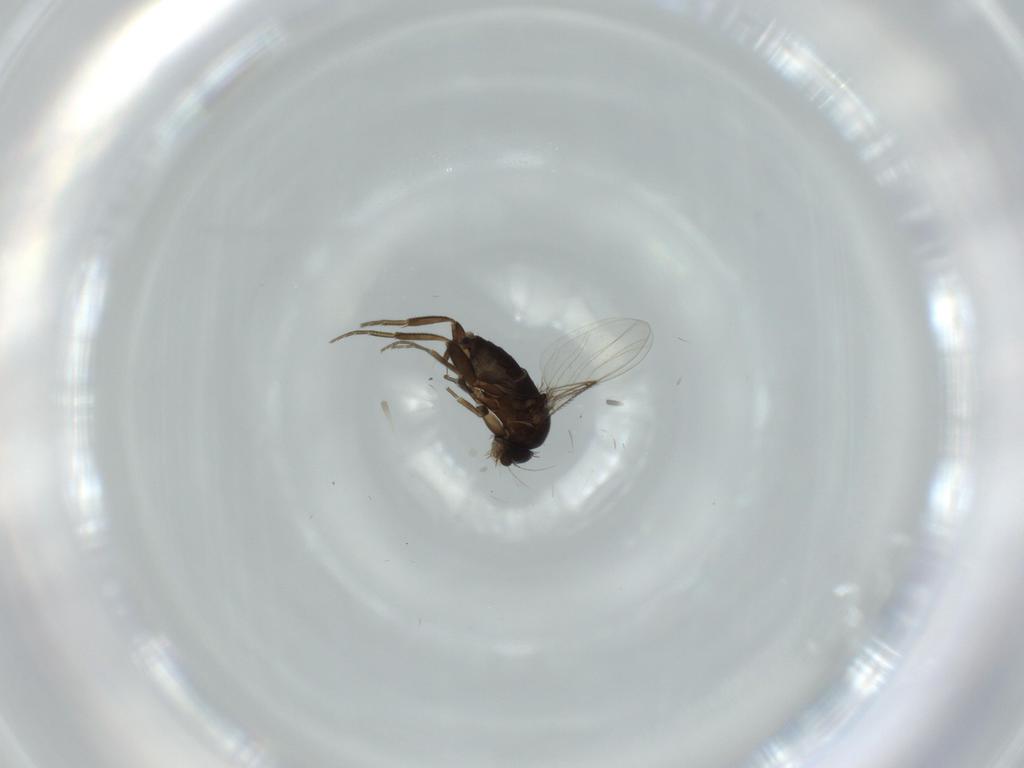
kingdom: Animalia
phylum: Arthropoda
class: Insecta
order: Diptera
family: Phoridae
